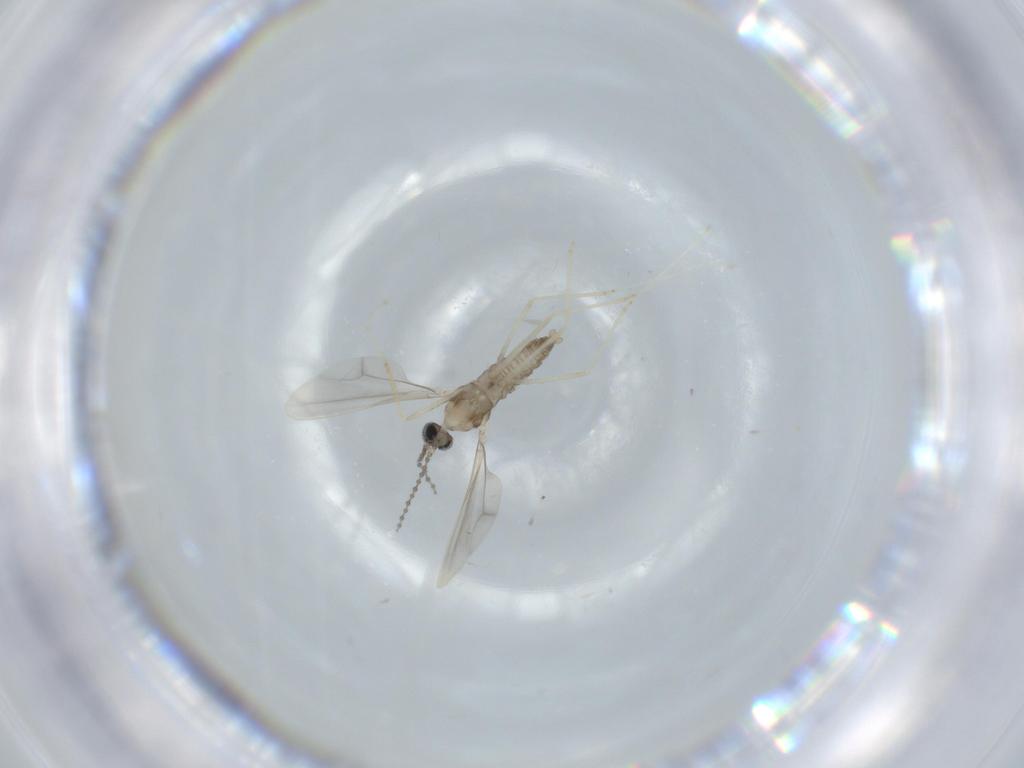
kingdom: Animalia
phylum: Arthropoda
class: Insecta
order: Diptera
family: Cecidomyiidae
